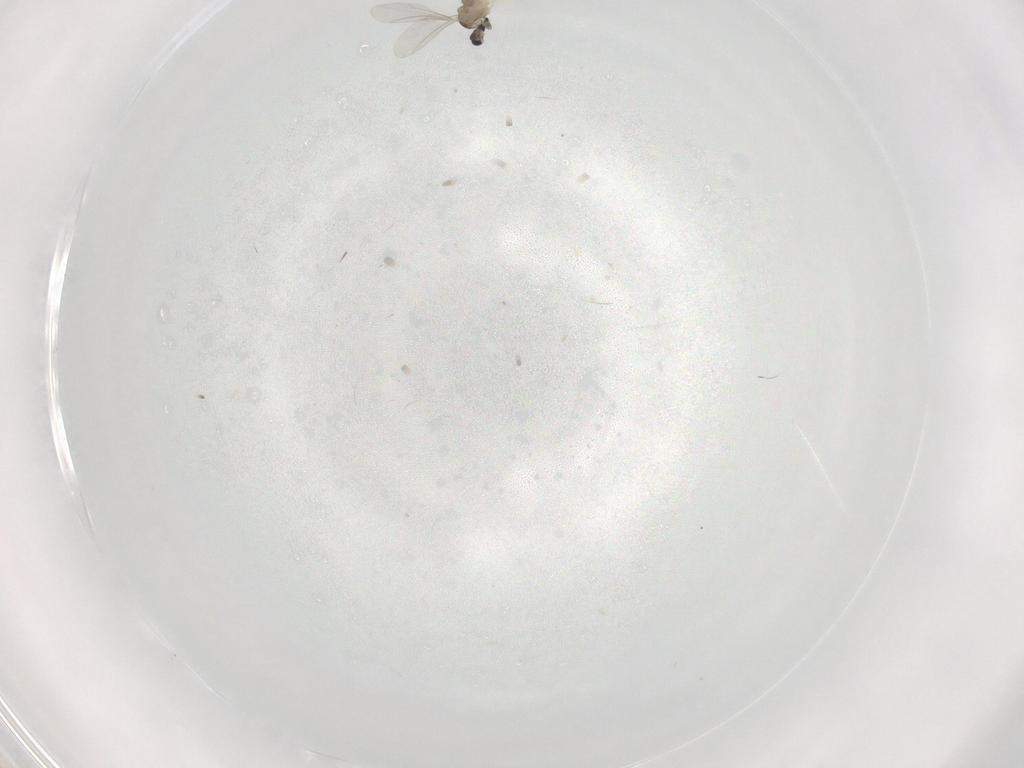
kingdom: Animalia
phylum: Arthropoda
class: Insecta
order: Diptera
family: Cecidomyiidae
